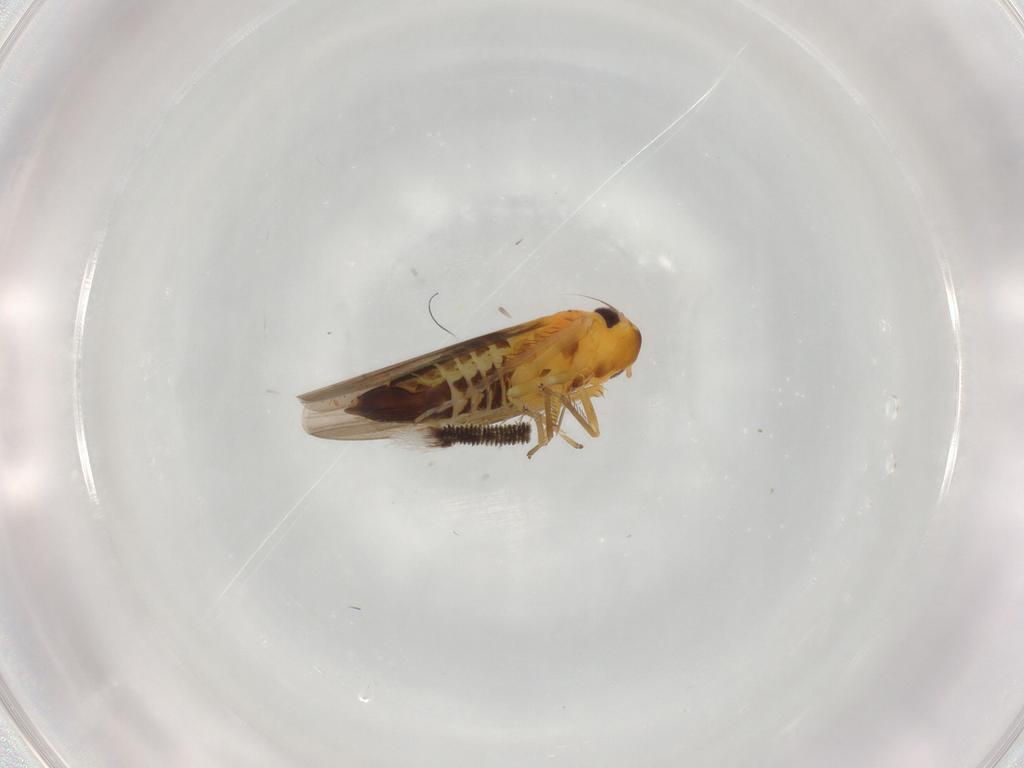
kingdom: Animalia
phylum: Arthropoda
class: Insecta
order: Hemiptera
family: Cicadellidae
